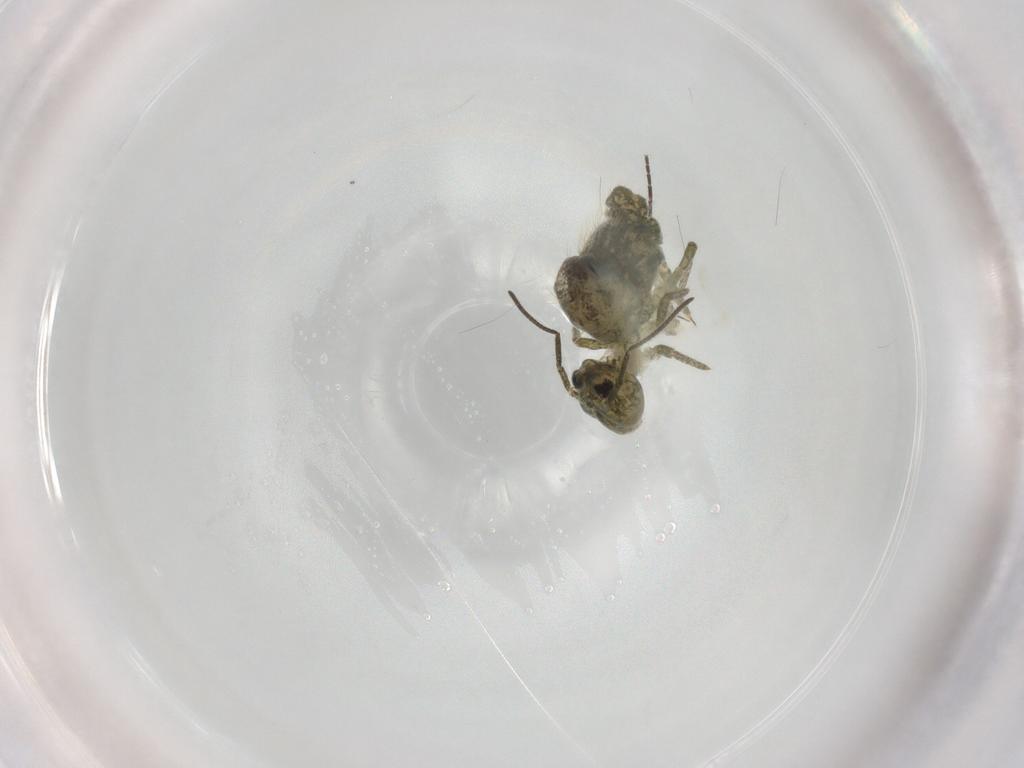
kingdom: Animalia
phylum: Arthropoda
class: Collembola
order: Symphypleona
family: Sminthuridae
